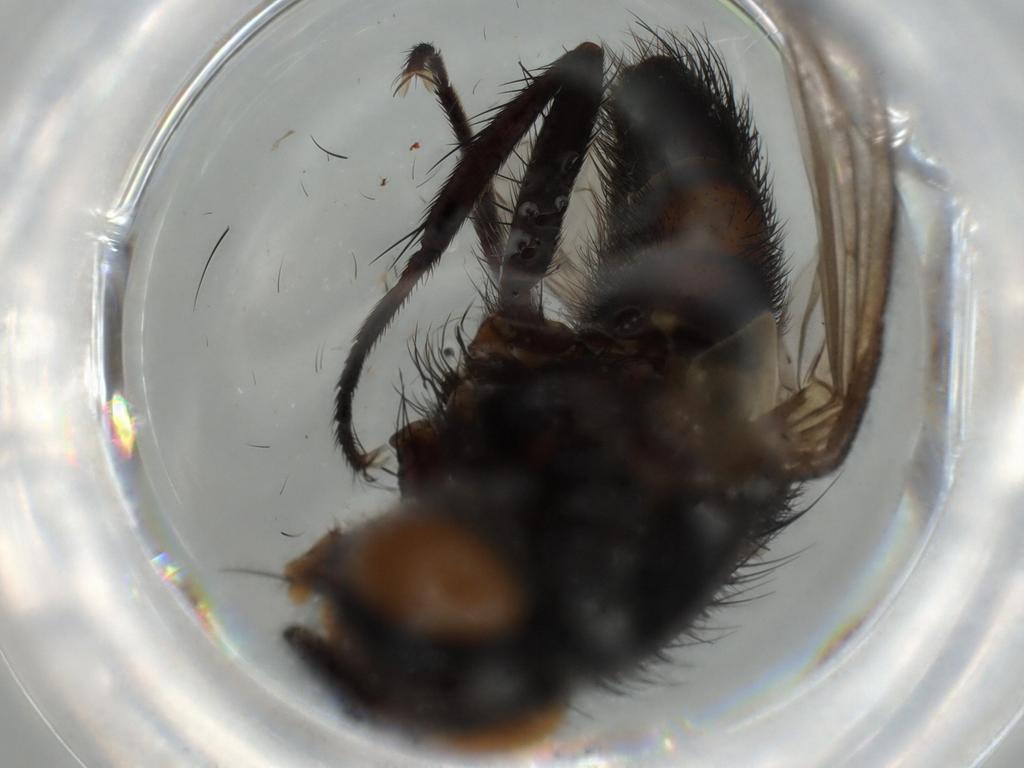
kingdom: Animalia
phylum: Arthropoda
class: Insecta
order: Diptera
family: Tachinidae
